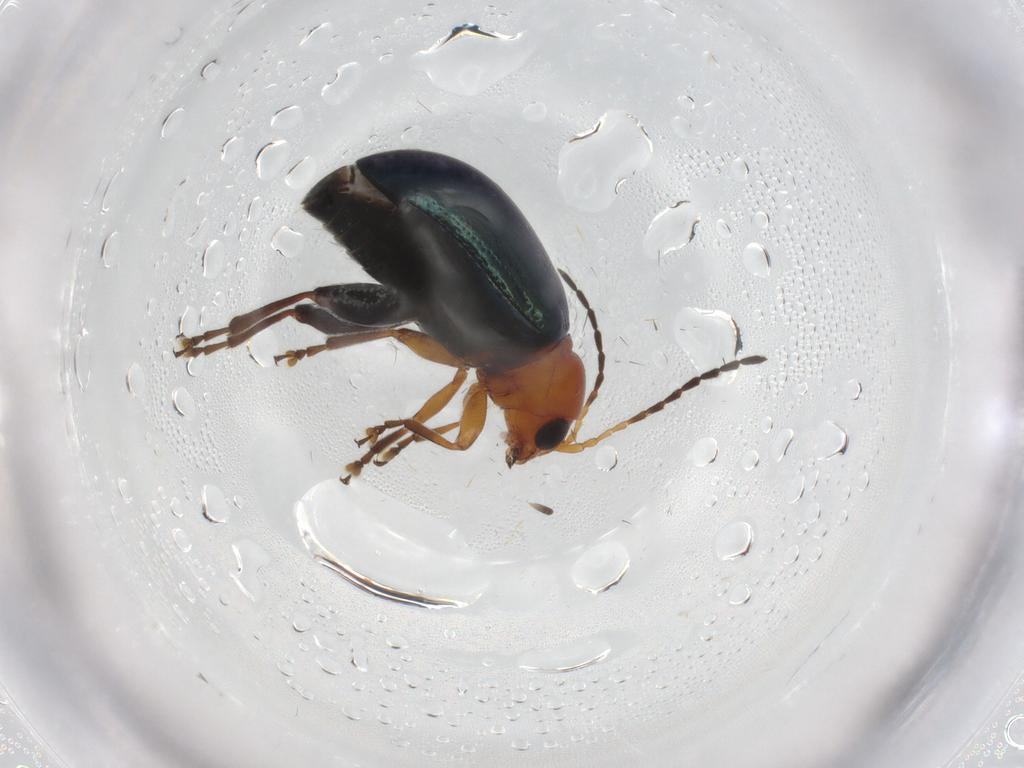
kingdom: Animalia
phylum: Arthropoda
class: Insecta
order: Coleoptera
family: Chrysomelidae
